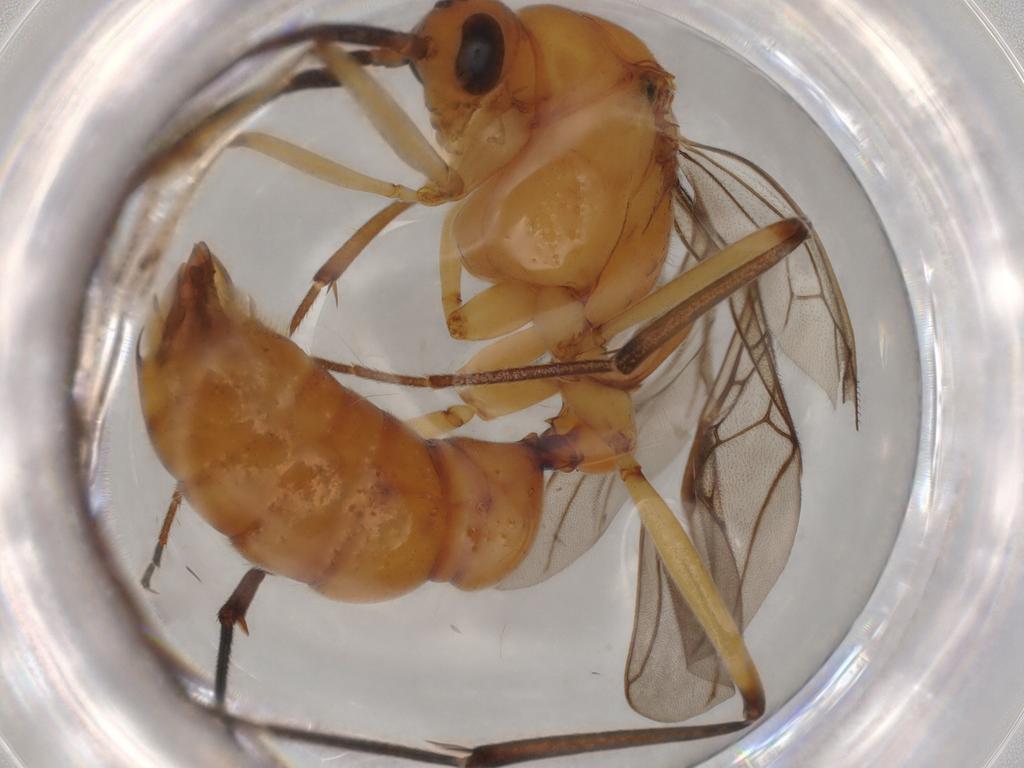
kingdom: Animalia
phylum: Arthropoda
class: Insecta
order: Hymenoptera
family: Formicidae
